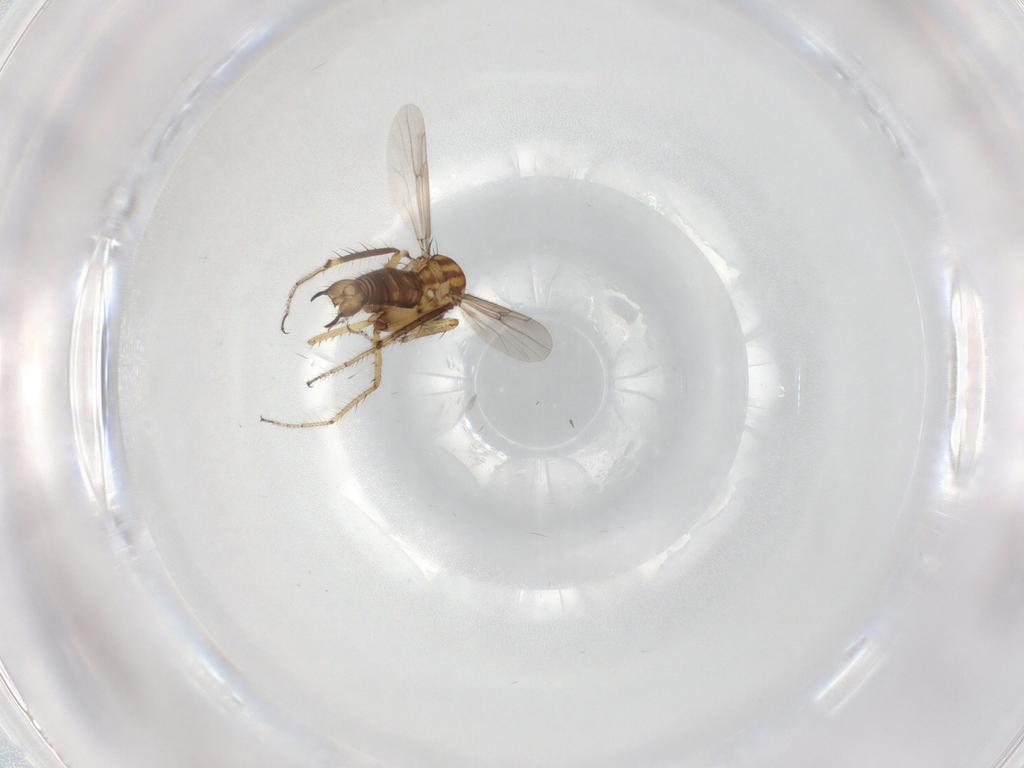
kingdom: Animalia
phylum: Arthropoda
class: Insecta
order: Diptera
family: Ceratopogonidae
